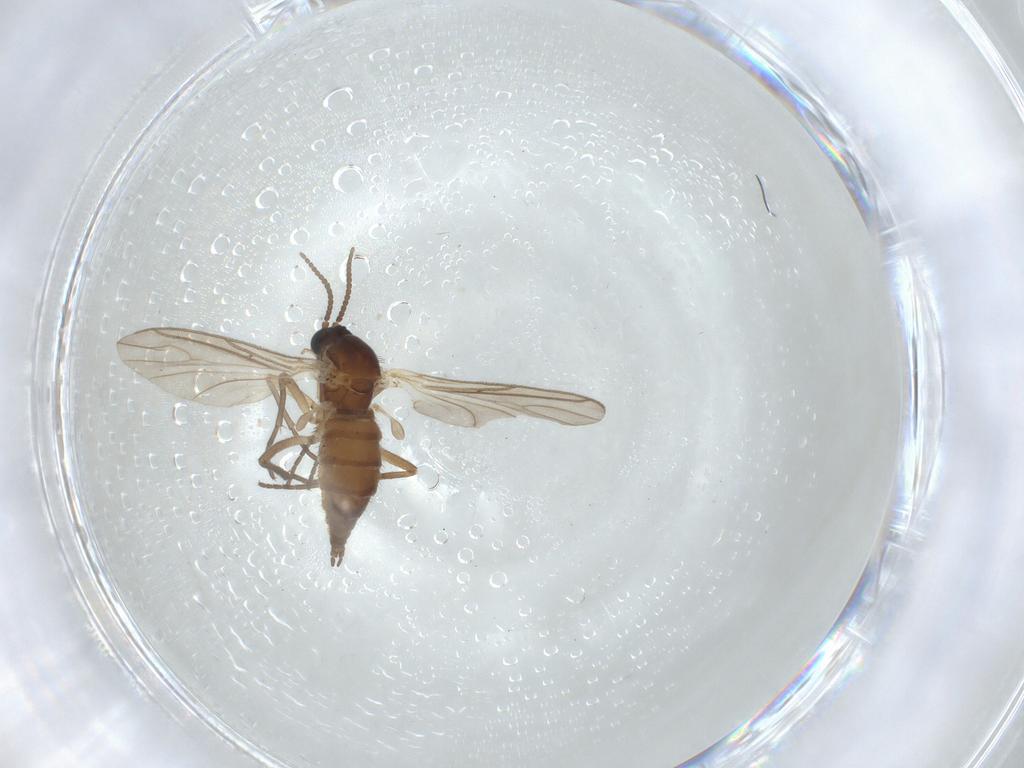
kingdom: Animalia
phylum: Arthropoda
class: Insecta
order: Diptera
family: Sciaridae
